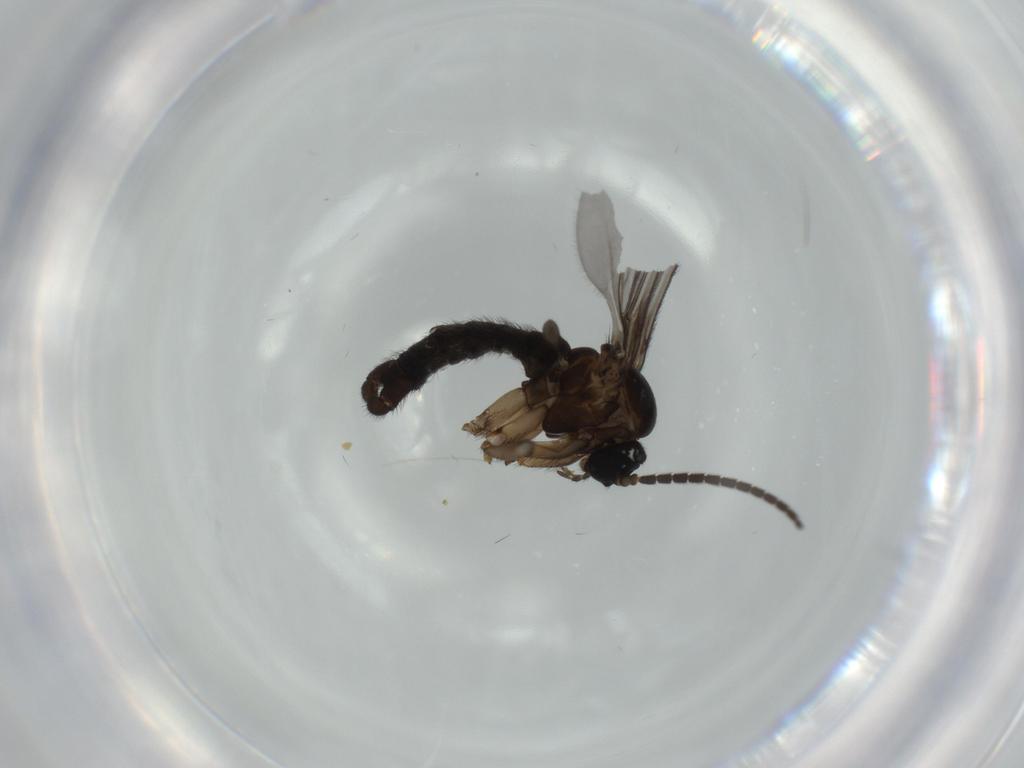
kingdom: Animalia
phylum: Arthropoda
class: Insecta
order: Diptera
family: Sciaridae
